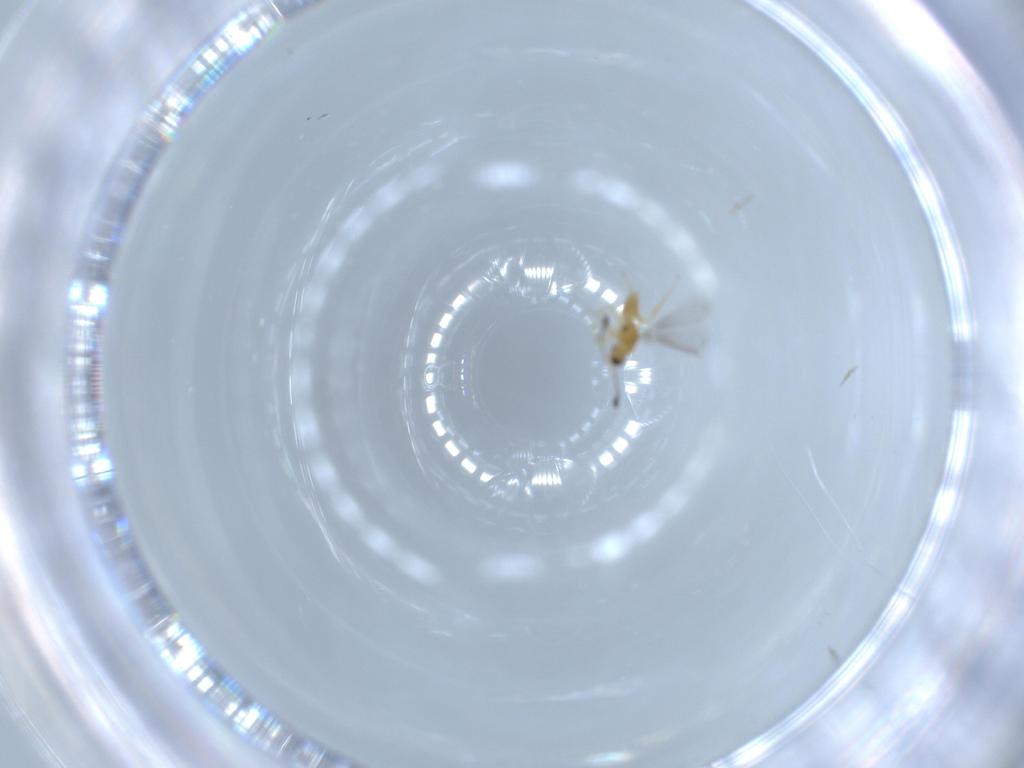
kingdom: Animalia
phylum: Arthropoda
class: Insecta
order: Hymenoptera
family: Mymaridae
